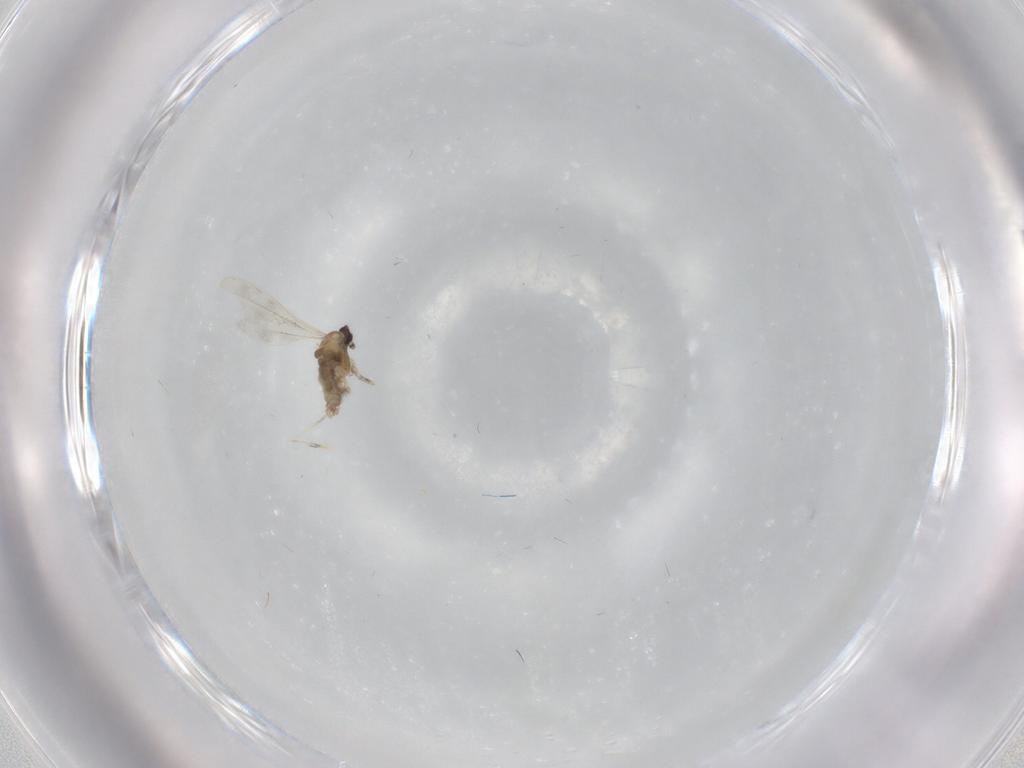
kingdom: Animalia
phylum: Arthropoda
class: Insecta
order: Diptera
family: Cecidomyiidae
